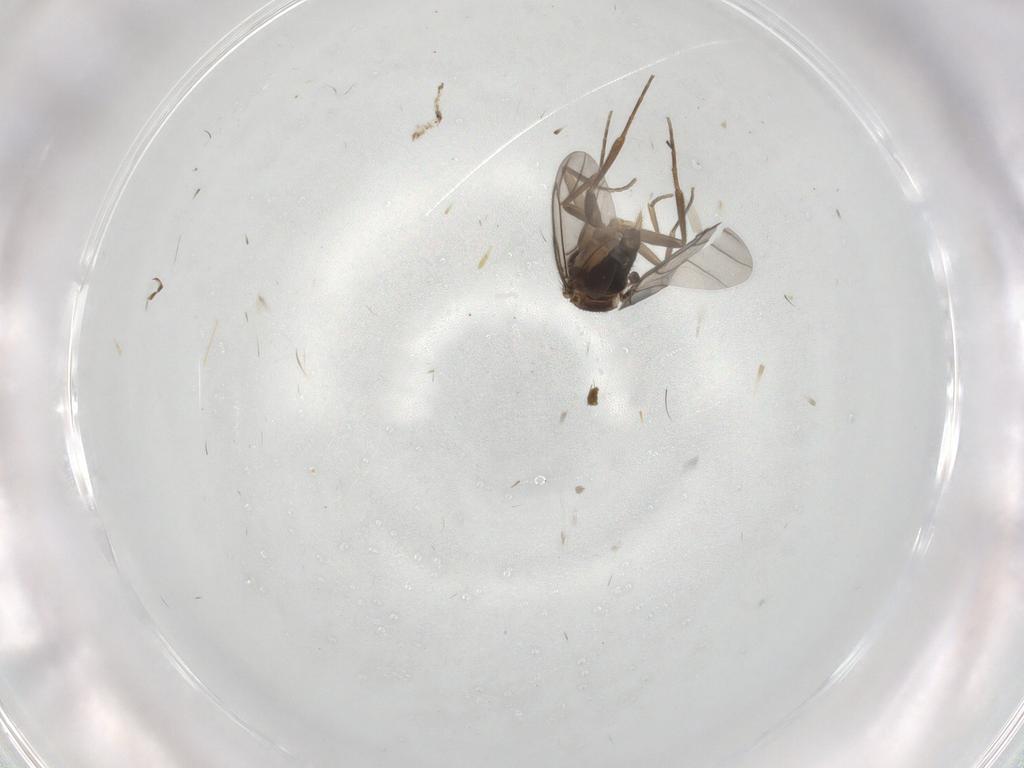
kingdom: Animalia
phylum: Arthropoda
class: Insecta
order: Diptera
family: Phoridae
